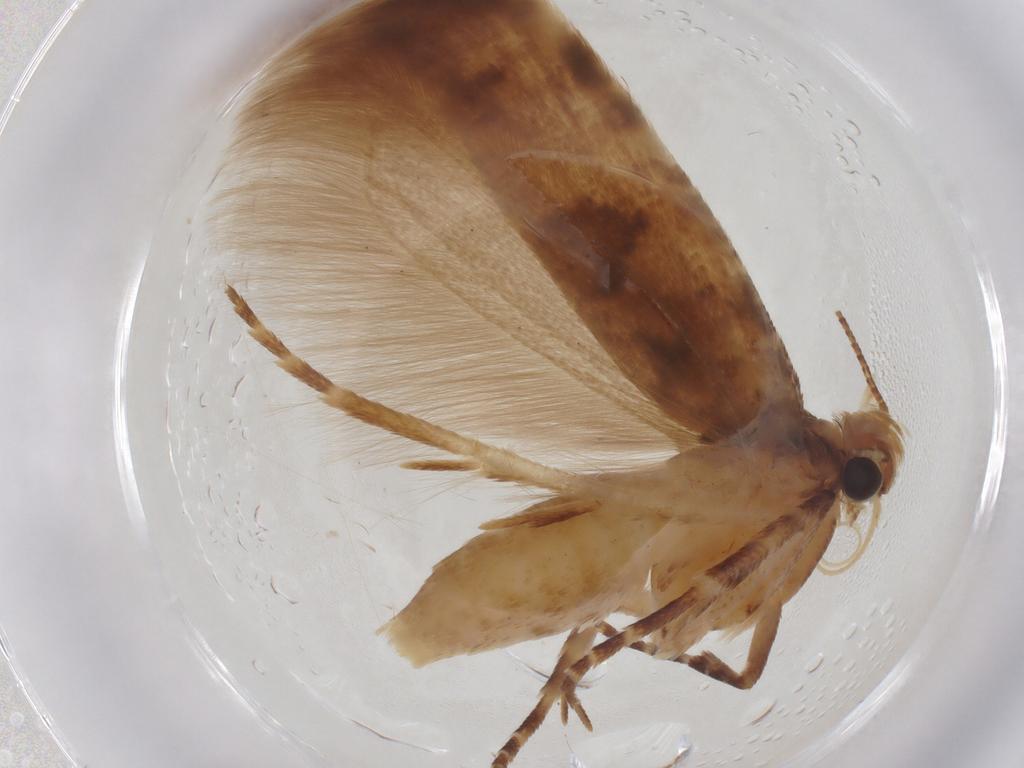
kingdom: Animalia
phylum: Arthropoda
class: Insecta
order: Lepidoptera
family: Gelechiidae
